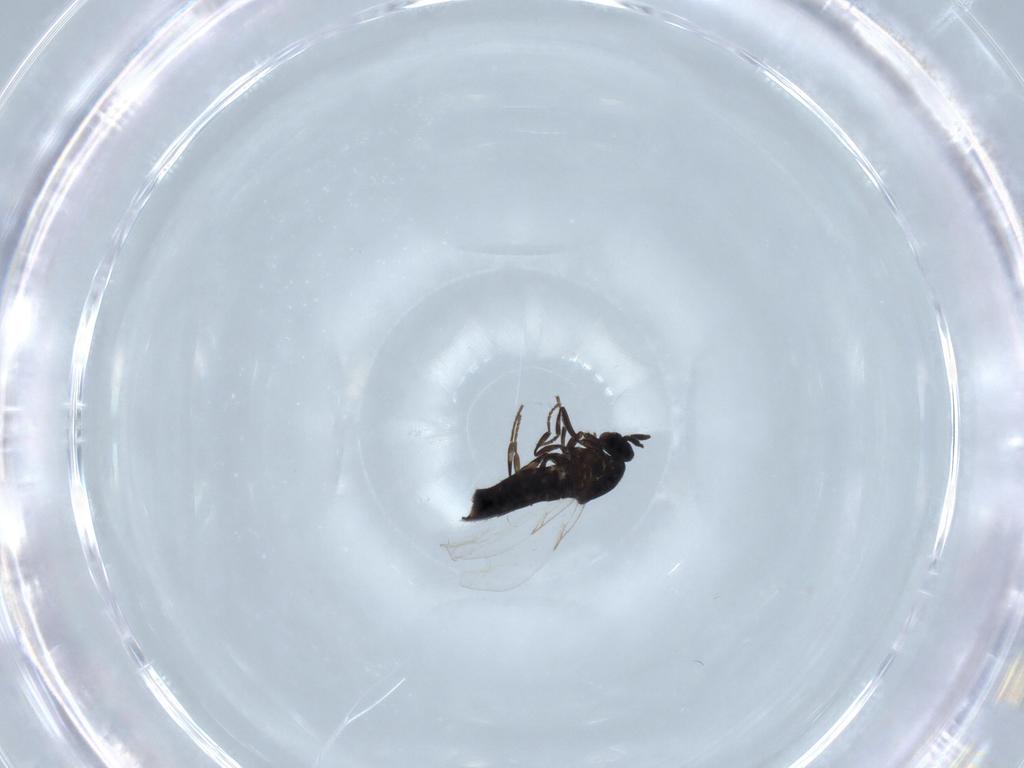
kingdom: Animalia
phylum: Arthropoda
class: Insecta
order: Diptera
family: Scatopsidae
